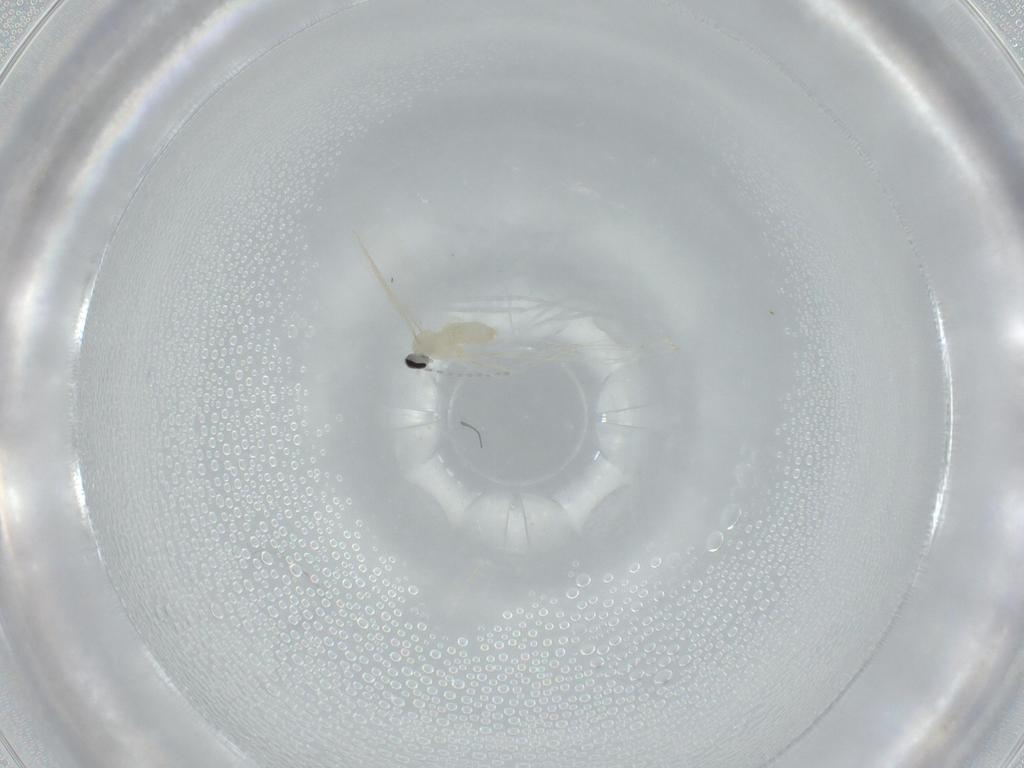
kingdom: Animalia
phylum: Arthropoda
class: Insecta
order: Diptera
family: Cecidomyiidae
